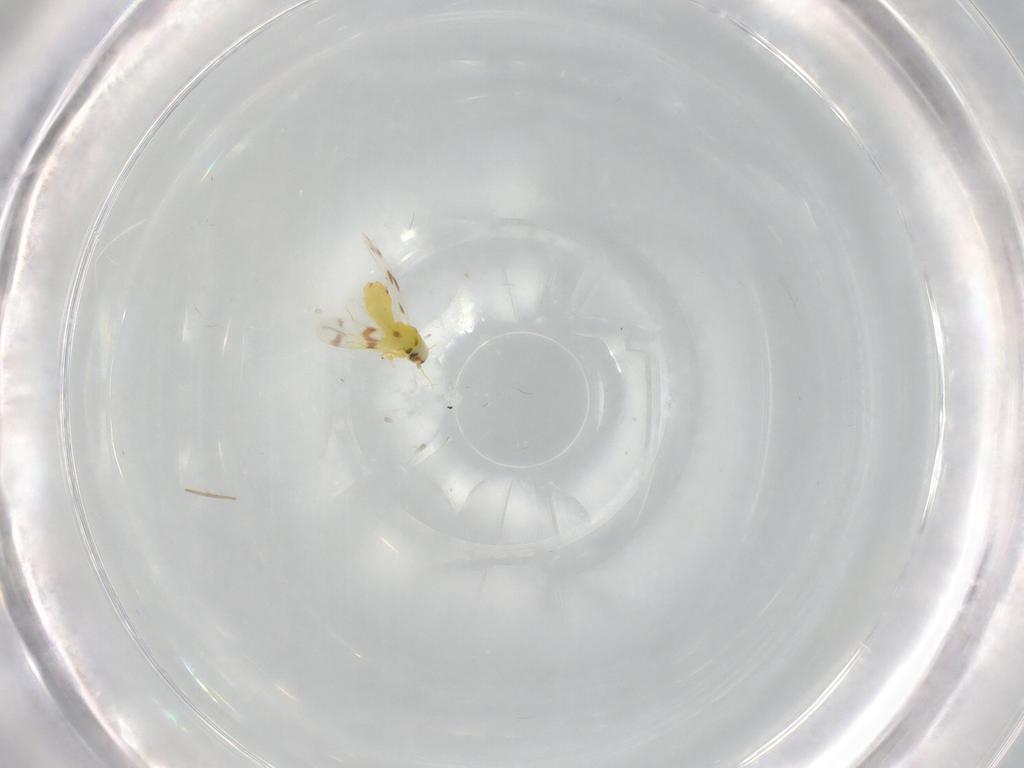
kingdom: Animalia
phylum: Arthropoda
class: Insecta
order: Hemiptera
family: Aleyrodidae
